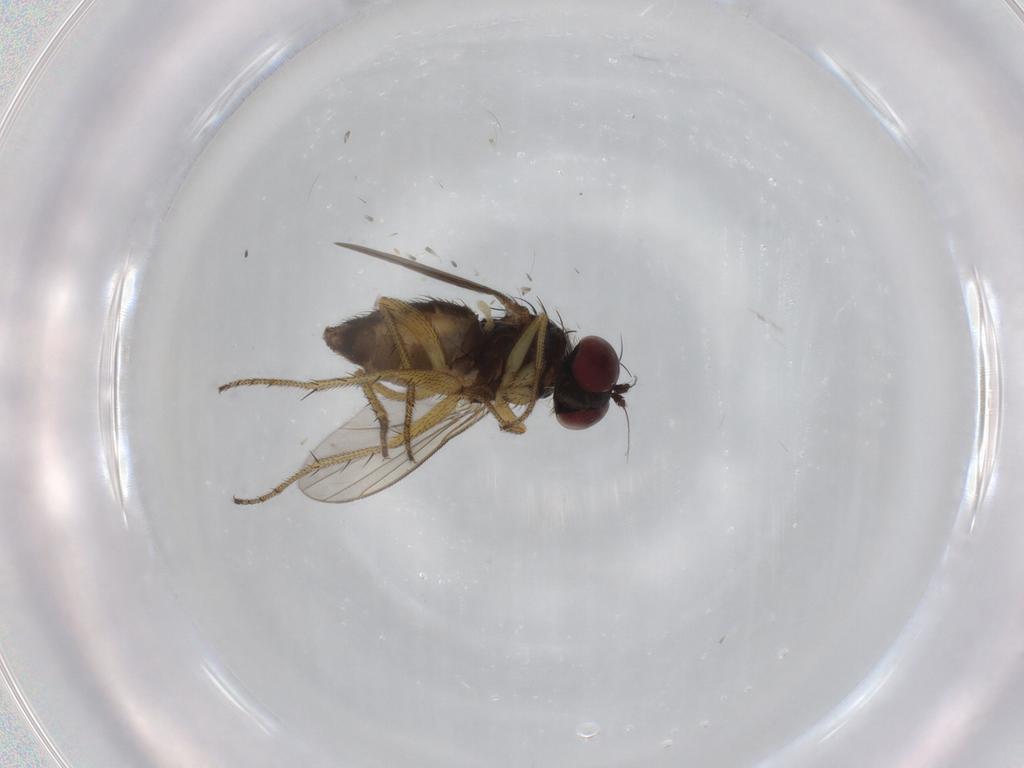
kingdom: Animalia
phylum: Arthropoda
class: Insecta
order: Diptera
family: Dolichopodidae
